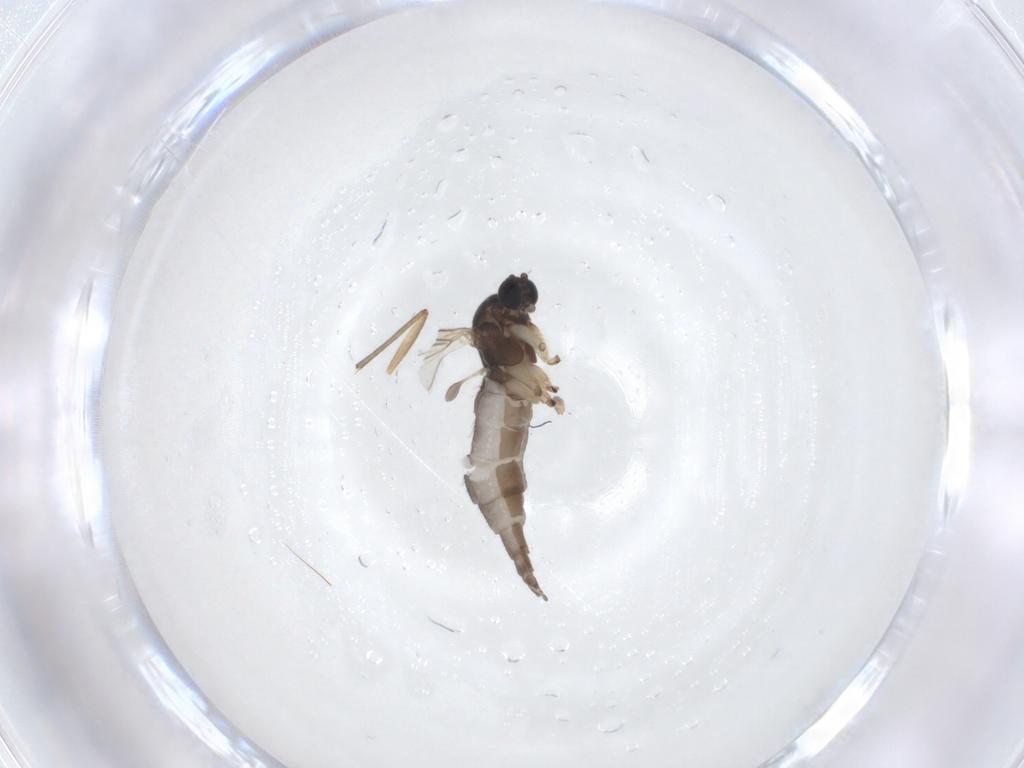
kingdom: Animalia
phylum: Arthropoda
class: Insecta
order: Diptera
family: Sciaridae
